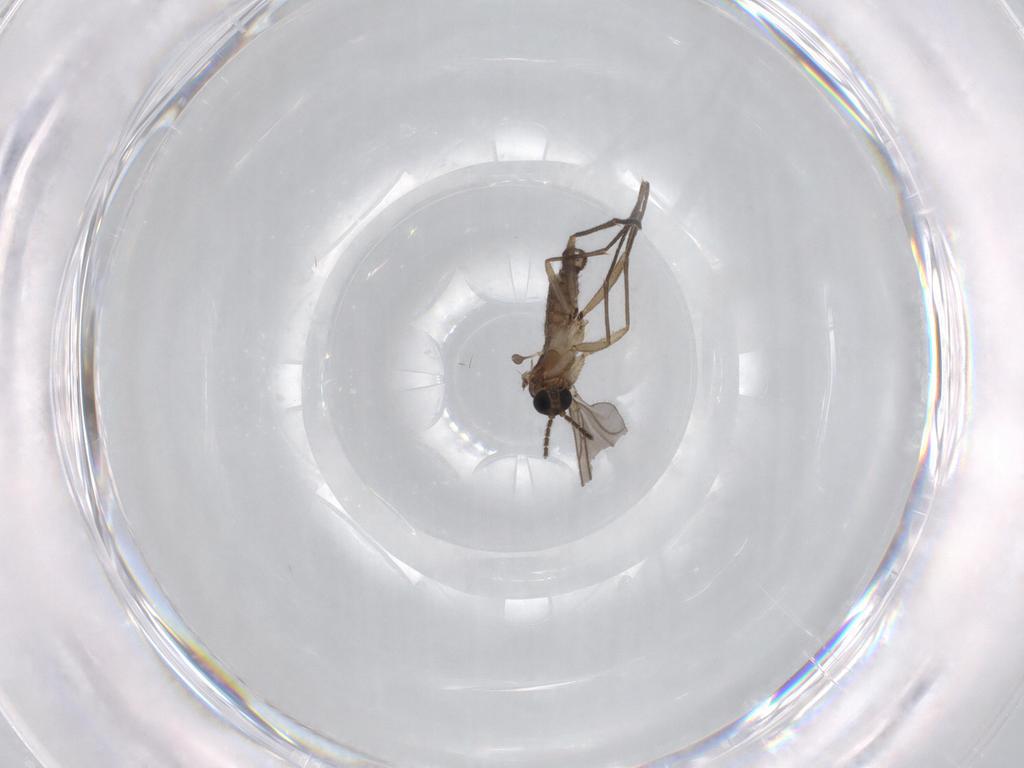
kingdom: Animalia
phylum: Arthropoda
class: Insecta
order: Diptera
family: Sciaridae
